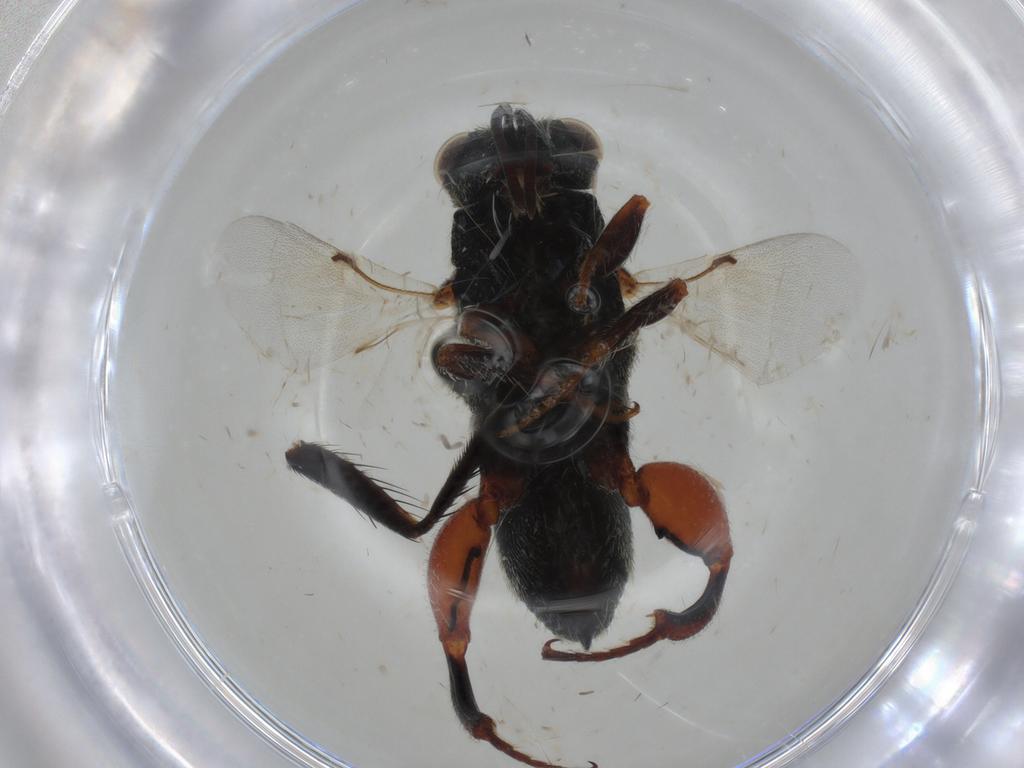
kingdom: Animalia
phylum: Arthropoda
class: Insecta
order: Hymenoptera
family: Chalcididae
